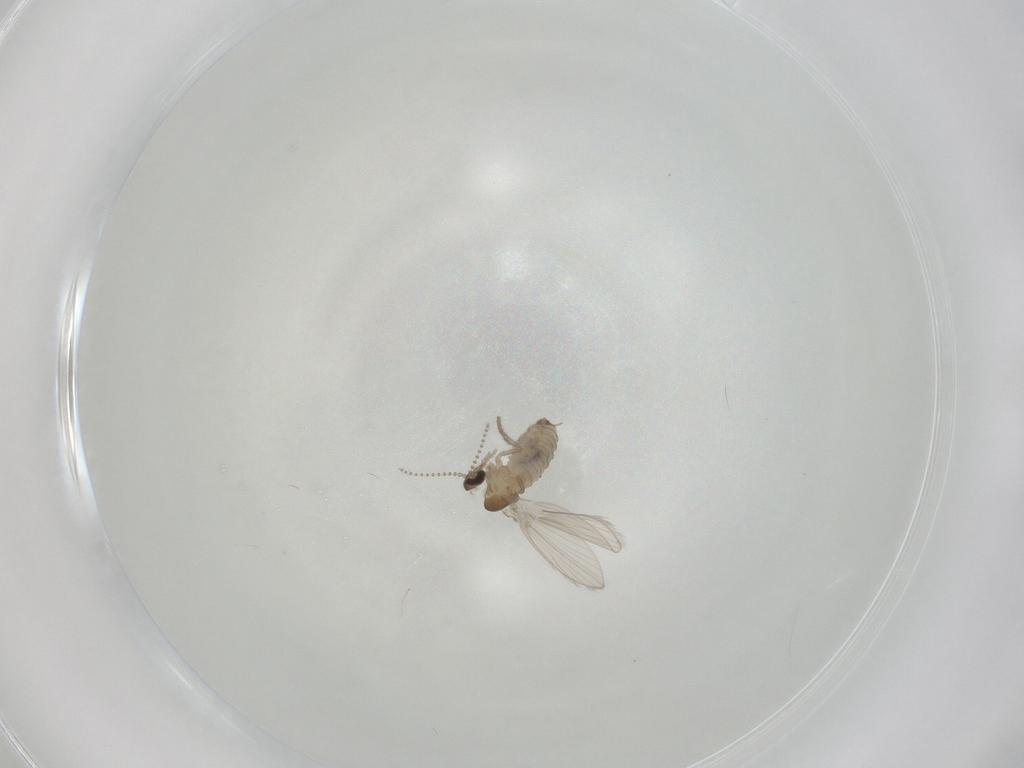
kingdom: Animalia
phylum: Arthropoda
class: Insecta
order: Diptera
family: Psychodidae
